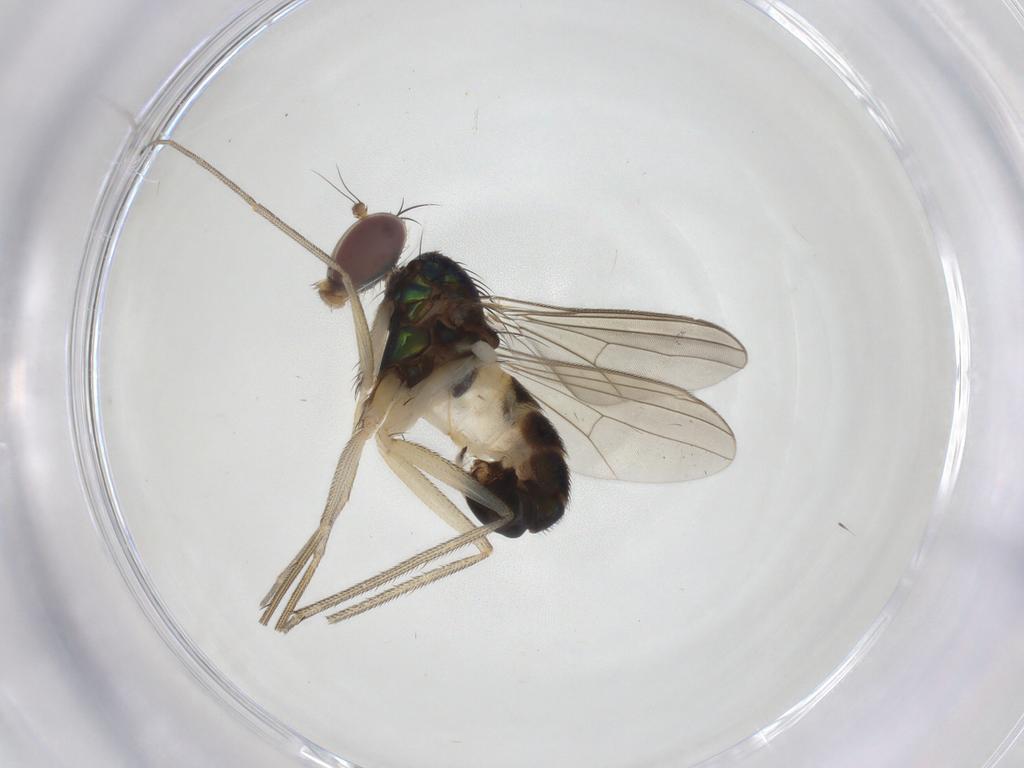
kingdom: Animalia
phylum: Arthropoda
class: Insecta
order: Diptera
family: Dolichopodidae
